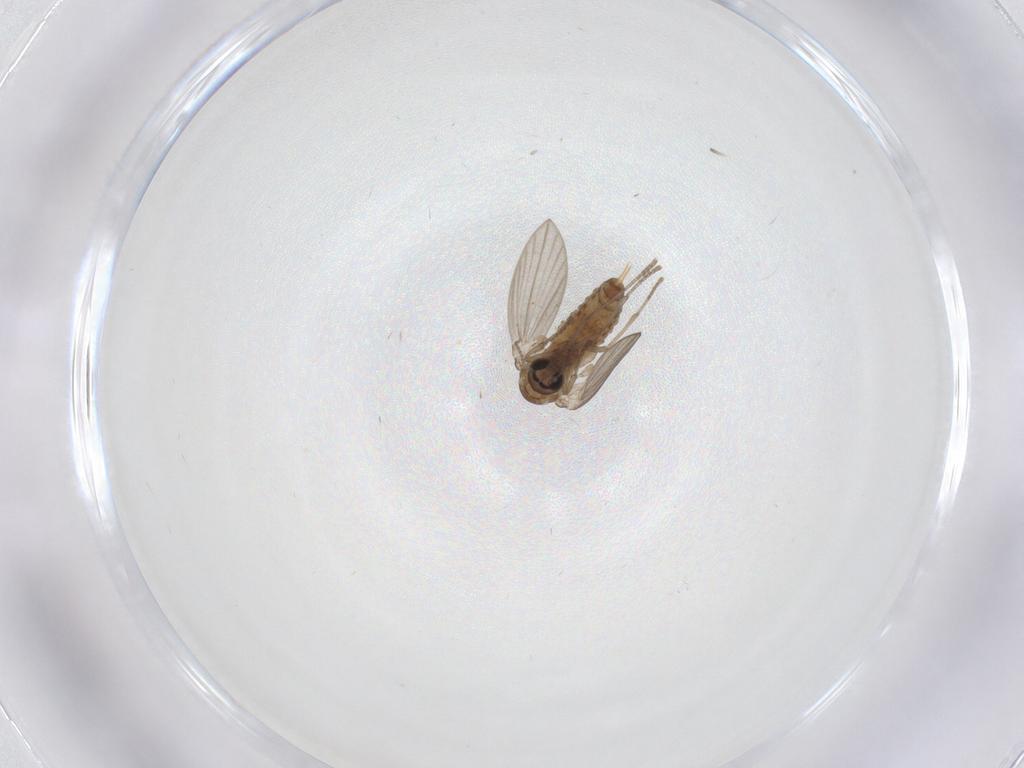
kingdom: Animalia
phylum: Arthropoda
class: Insecta
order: Diptera
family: Psychodidae
